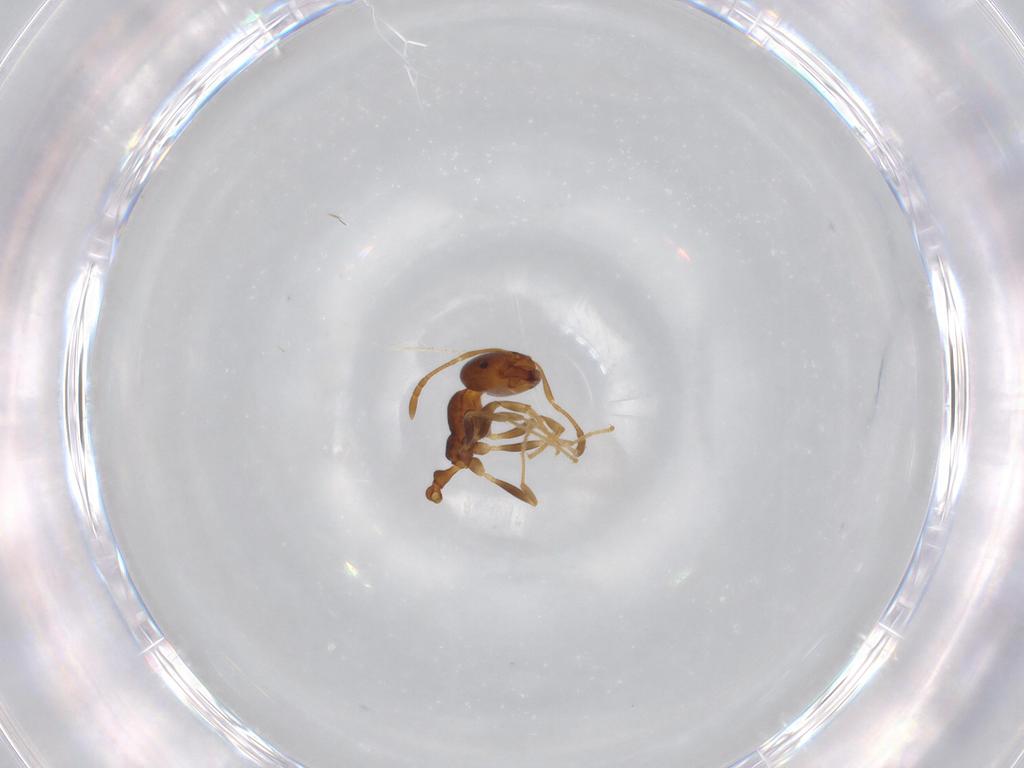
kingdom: Animalia
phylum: Arthropoda
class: Insecta
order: Hymenoptera
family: Formicidae
